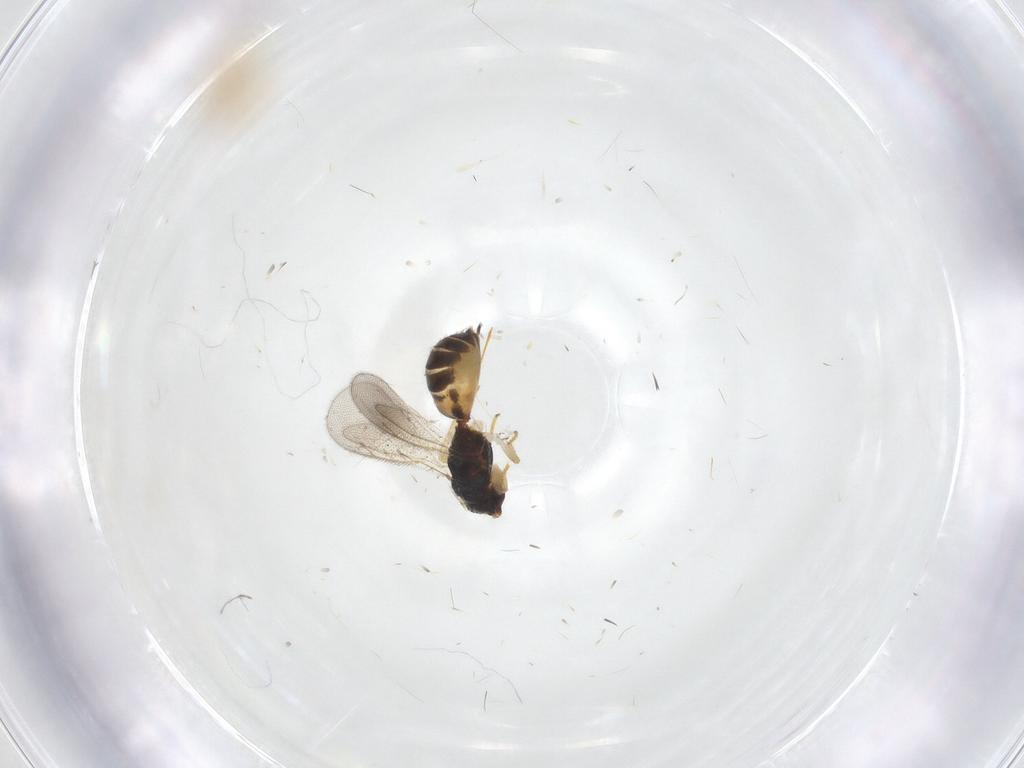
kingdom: Animalia
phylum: Arthropoda
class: Insecta
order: Hymenoptera
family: Eulophidae
